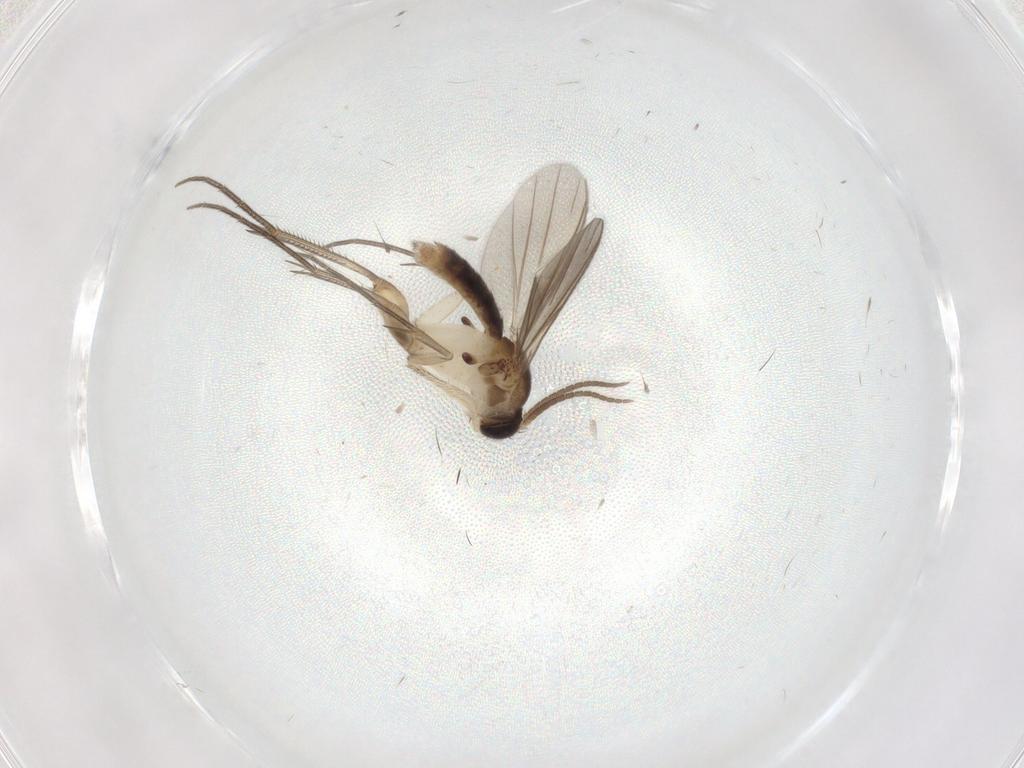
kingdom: Animalia
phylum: Arthropoda
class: Insecta
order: Diptera
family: Mycetophilidae
